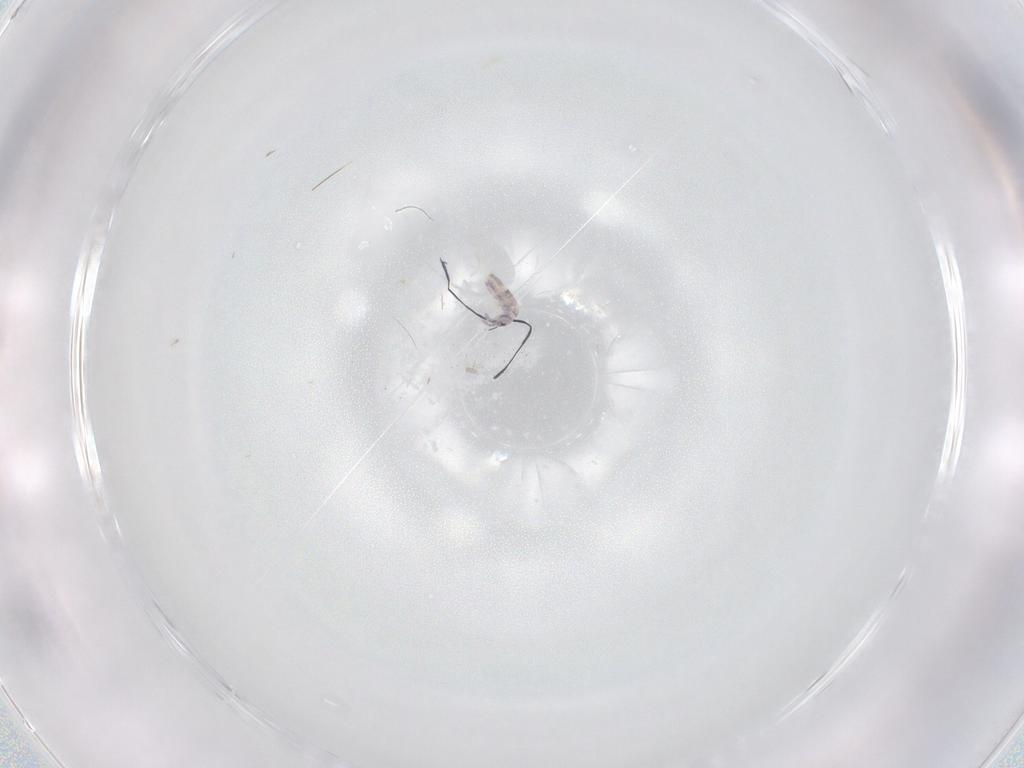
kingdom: Animalia
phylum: Arthropoda
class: Collembola
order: Entomobryomorpha
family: Entomobryidae
